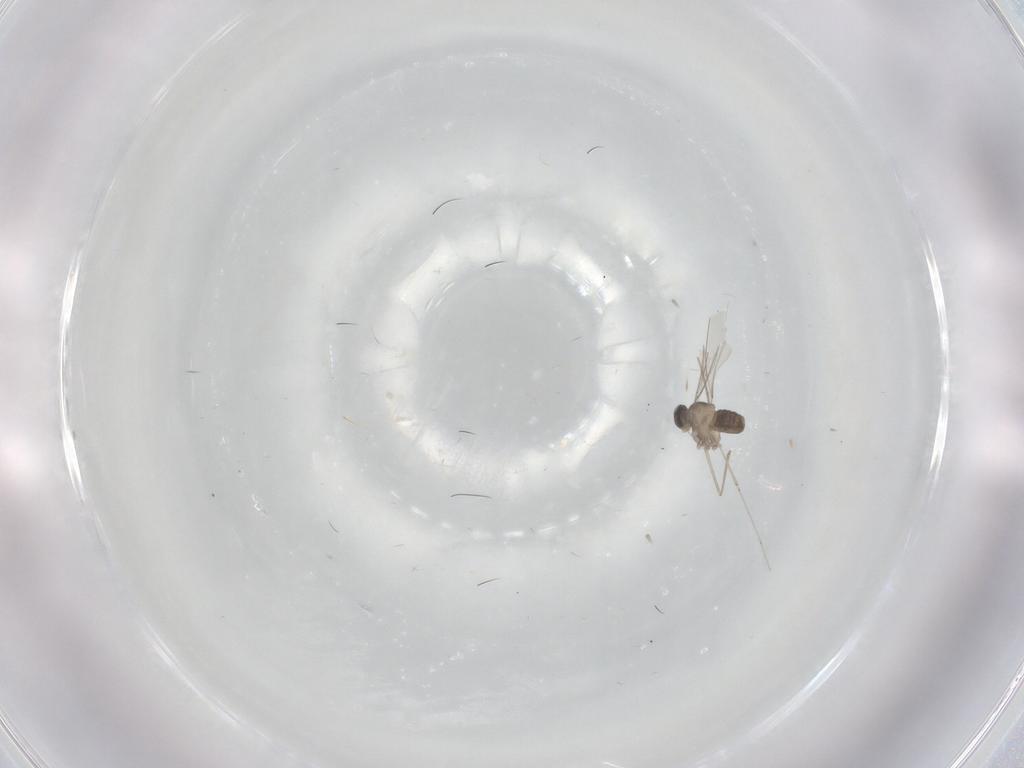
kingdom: Animalia
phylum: Arthropoda
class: Insecta
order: Diptera
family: Cecidomyiidae
